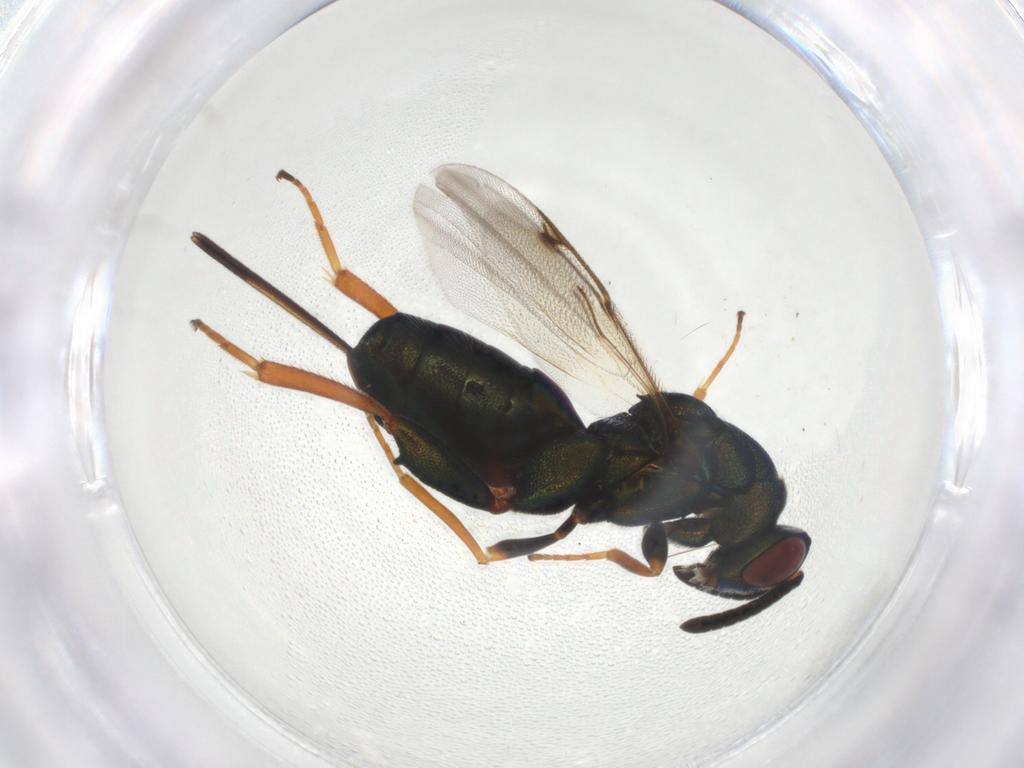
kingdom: Animalia
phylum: Arthropoda
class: Insecta
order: Hymenoptera
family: Torymidae
